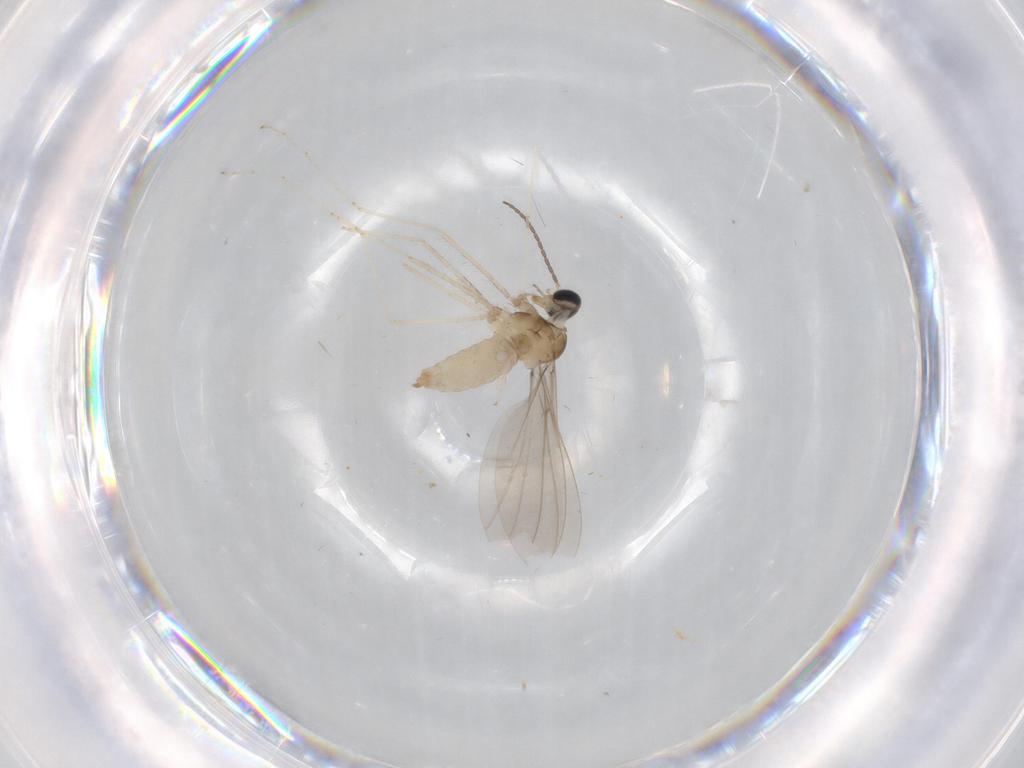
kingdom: Animalia
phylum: Arthropoda
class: Insecta
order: Diptera
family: Cecidomyiidae
